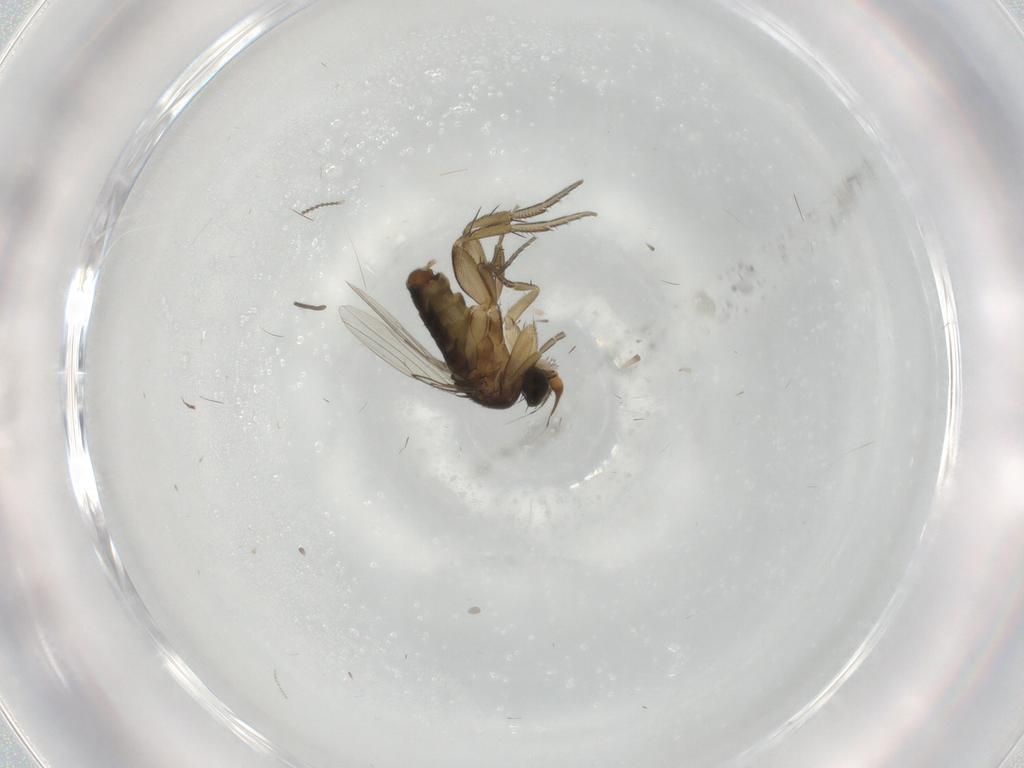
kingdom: Animalia
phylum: Arthropoda
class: Insecta
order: Diptera
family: Phoridae
